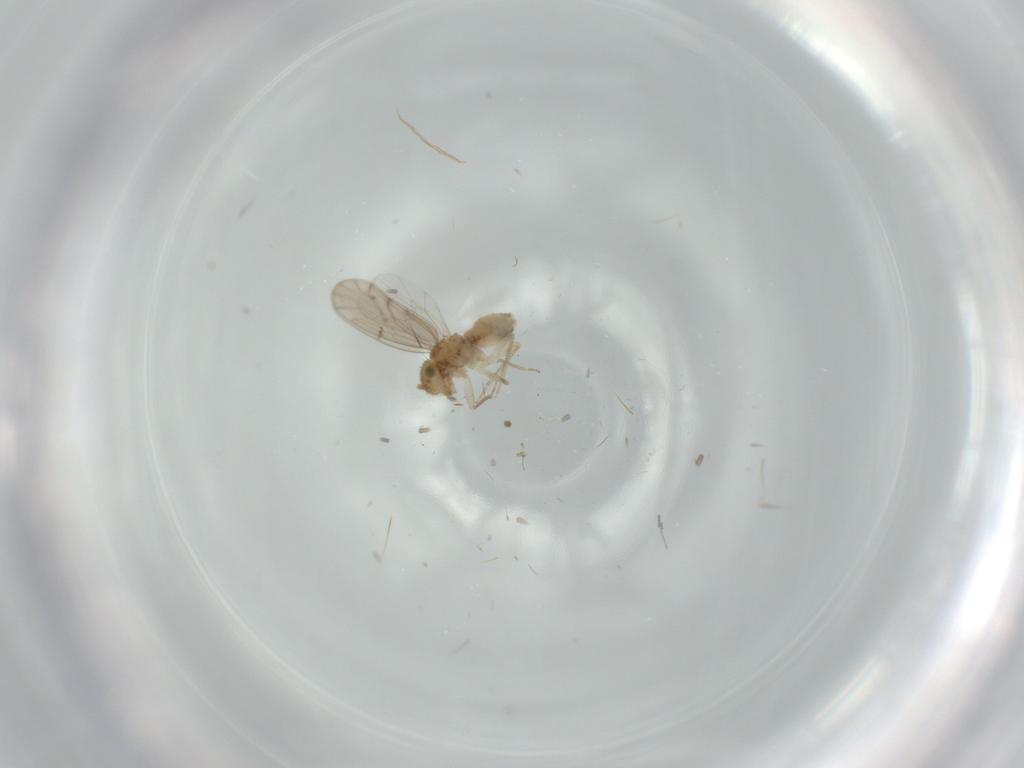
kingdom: Animalia
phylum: Arthropoda
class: Insecta
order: Psocodea
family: Ectopsocidae
